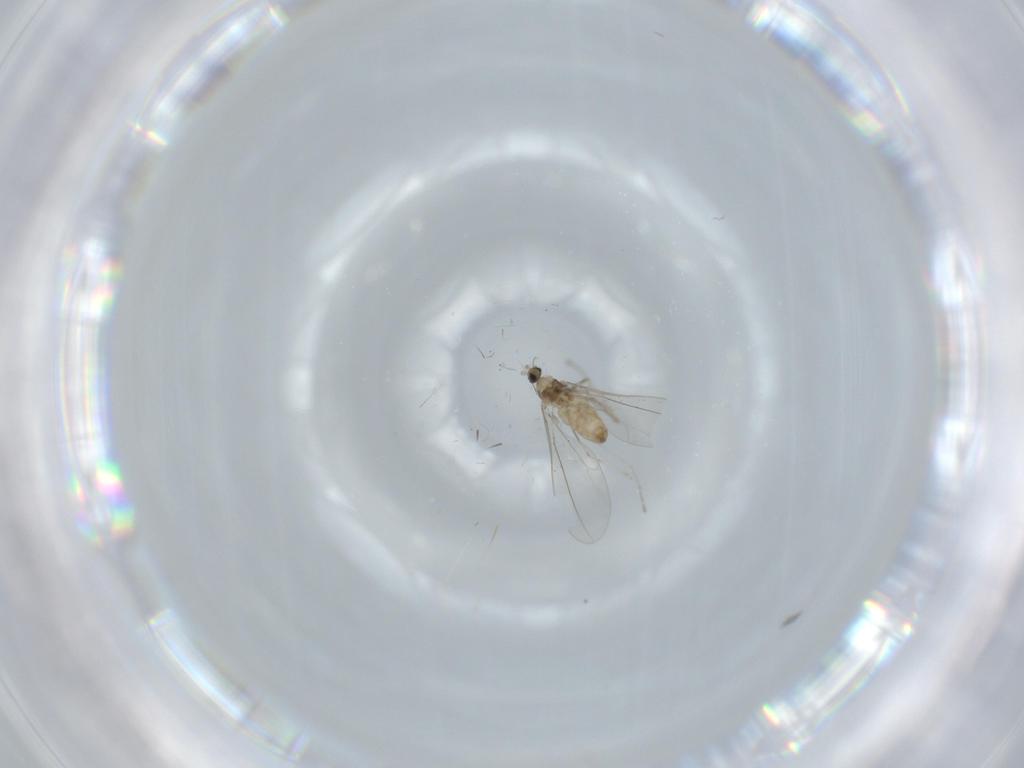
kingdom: Animalia
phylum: Arthropoda
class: Insecta
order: Diptera
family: Cecidomyiidae
